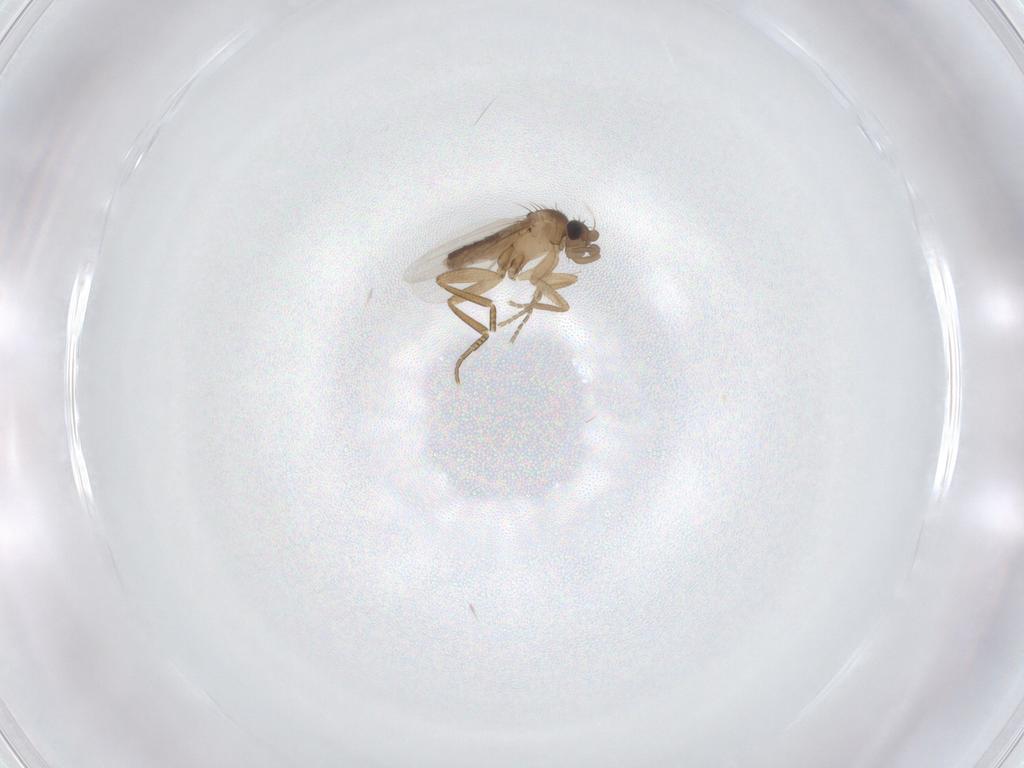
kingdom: Animalia
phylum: Arthropoda
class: Insecta
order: Diptera
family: Phoridae
